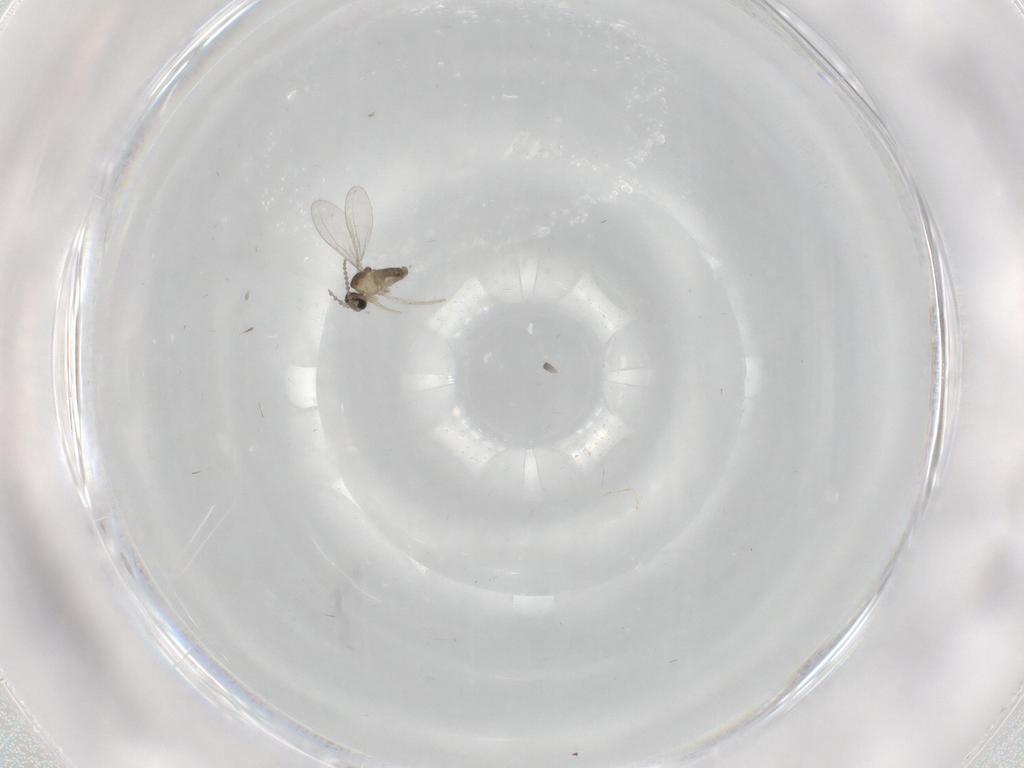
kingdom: Animalia
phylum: Arthropoda
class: Insecta
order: Diptera
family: Cecidomyiidae
